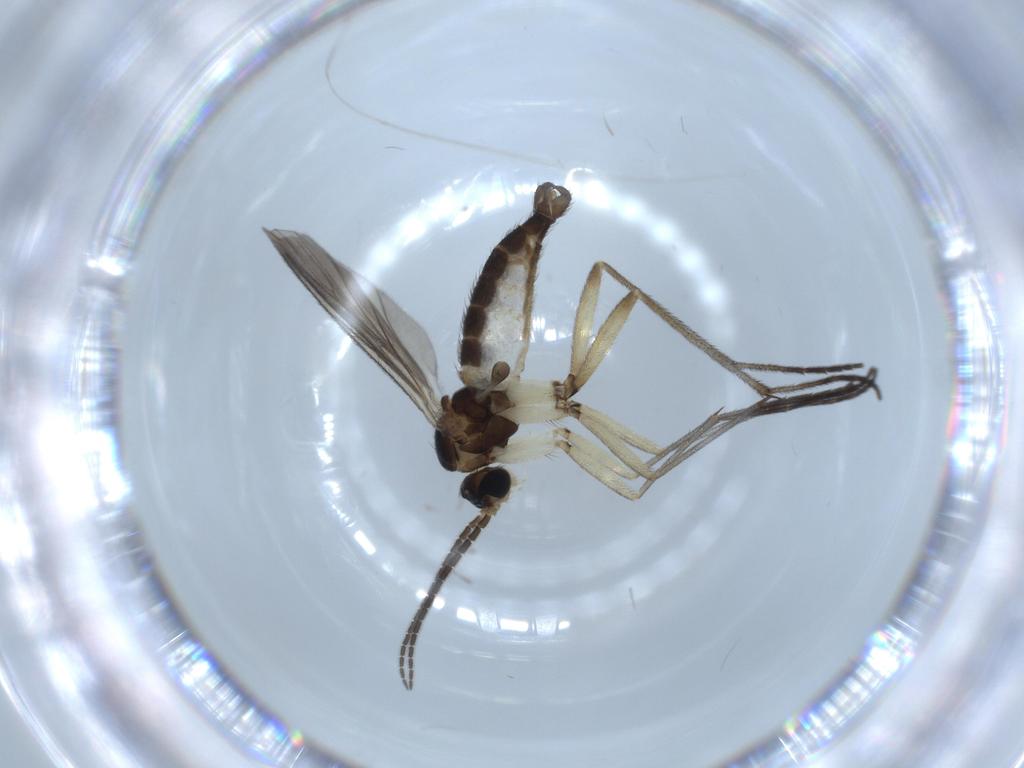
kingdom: Animalia
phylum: Arthropoda
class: Insecta
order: Diptera
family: Sciaridae
